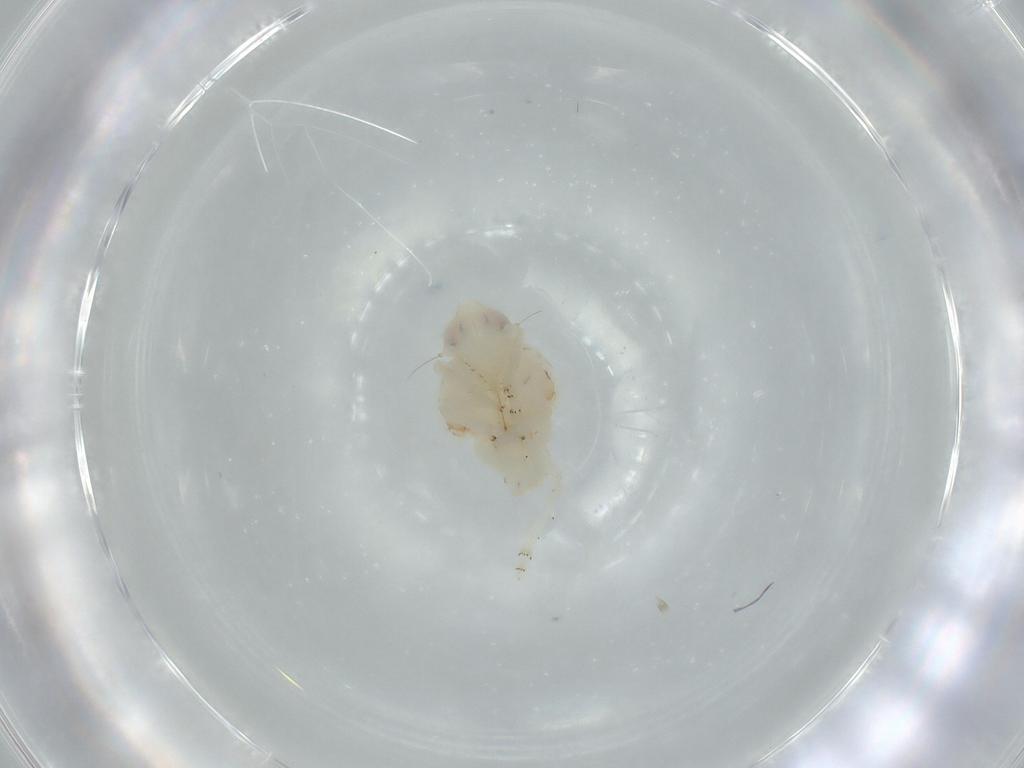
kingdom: Animalia
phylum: Arthropoda
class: Insecta
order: Hemiptera
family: Nogodinidae
